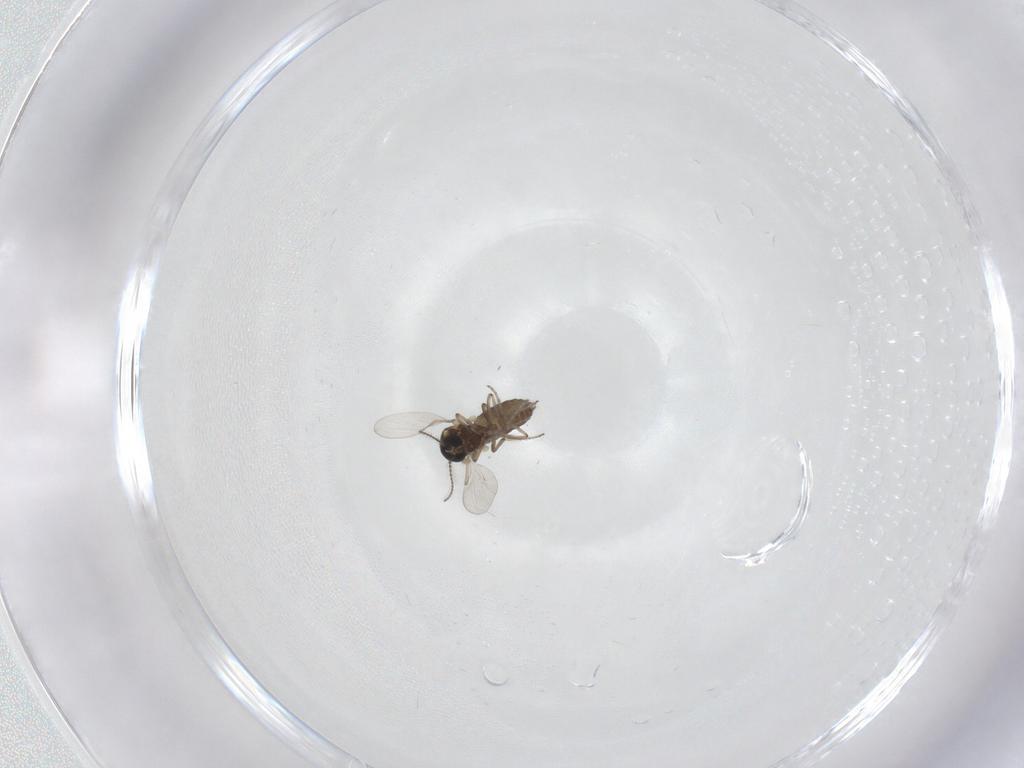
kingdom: Animalia
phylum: Arthropoda
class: Insecta
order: Diptera
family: Ceratopogonidae
